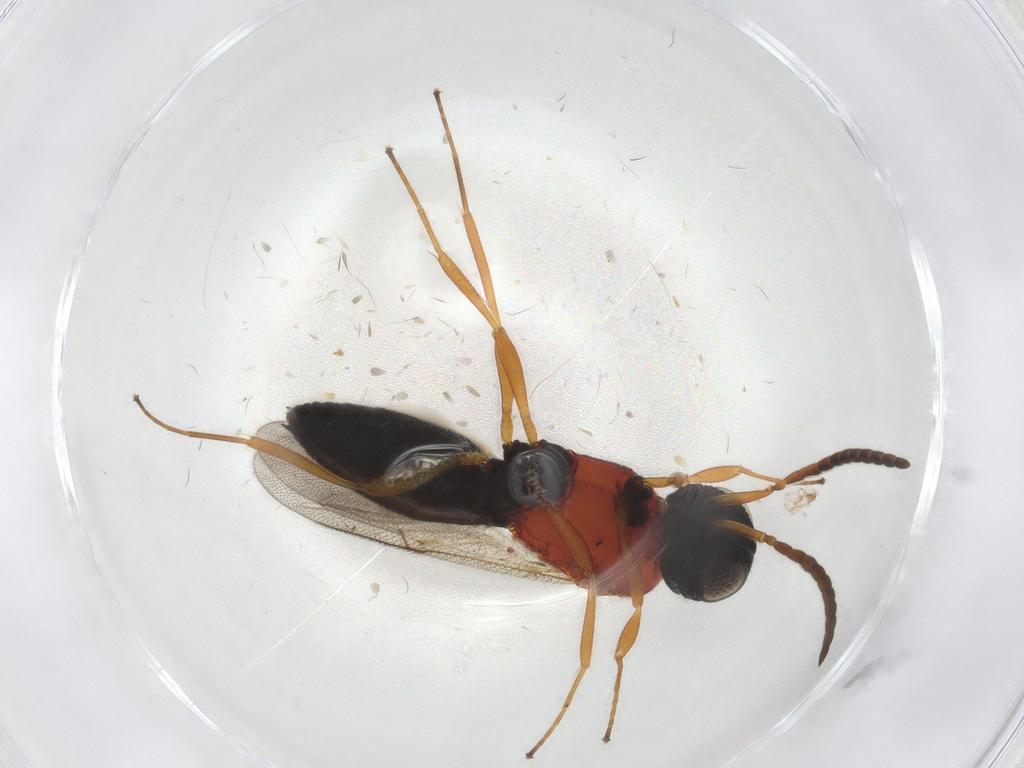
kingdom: Animalia
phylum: Arthropoda
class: Insecta
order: Hymenoptera
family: Scelionidae
